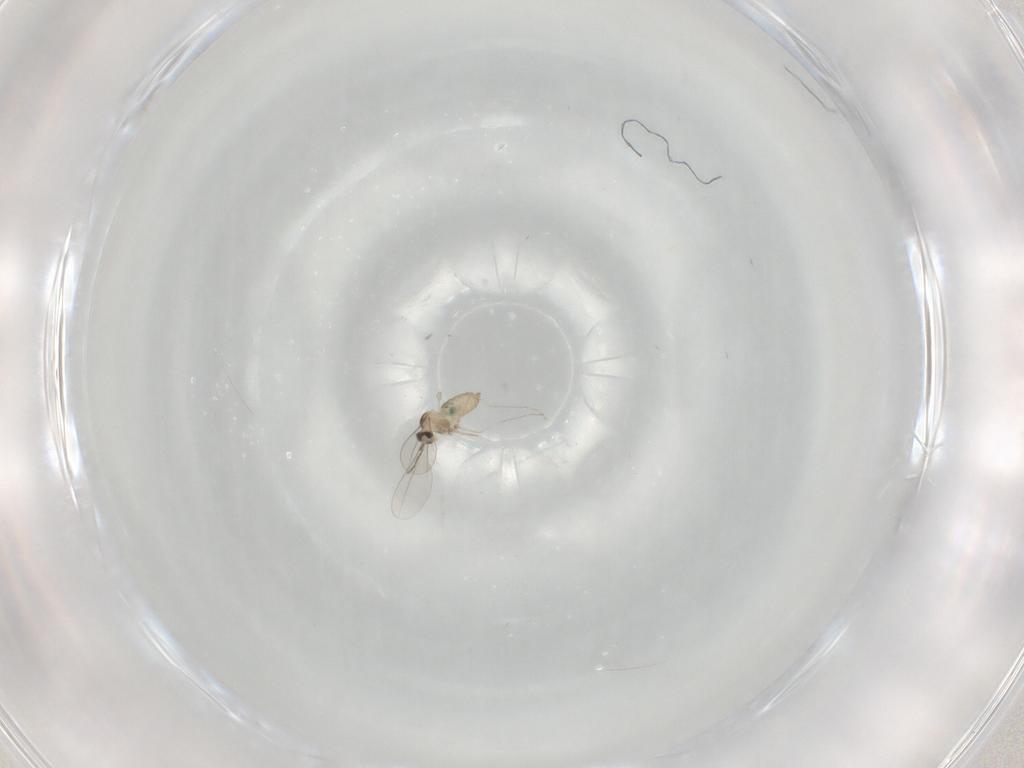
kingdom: Animalia
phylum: Arthropoda
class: Insecta
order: Diptera
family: Cecidomyiidae
